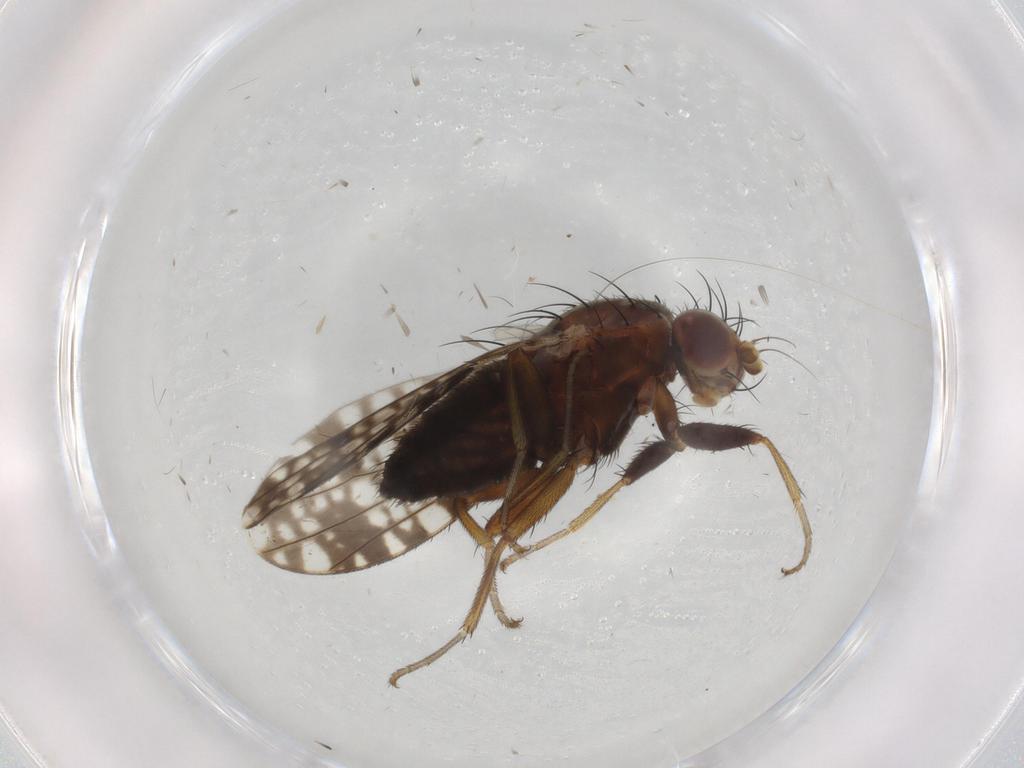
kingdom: Animalia
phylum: Arthropoda
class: Insecta
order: Diptera
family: Tephritidae
